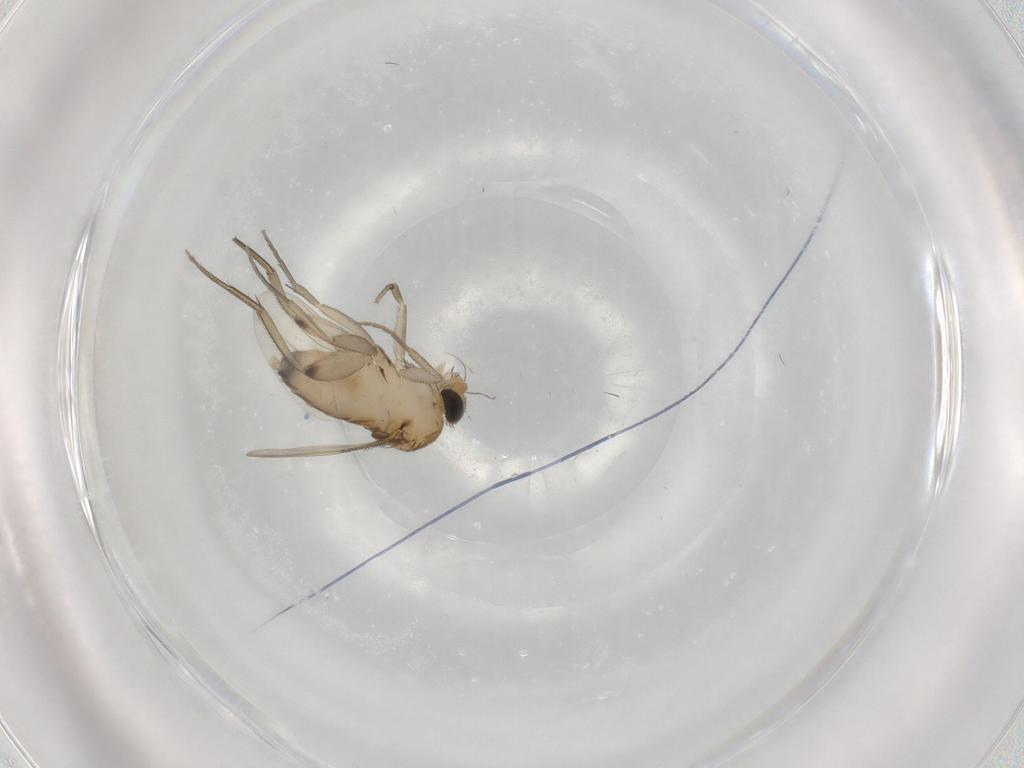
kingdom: Animalia
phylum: Arthropoda
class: Insecta
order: Diptera
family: Phoridae
